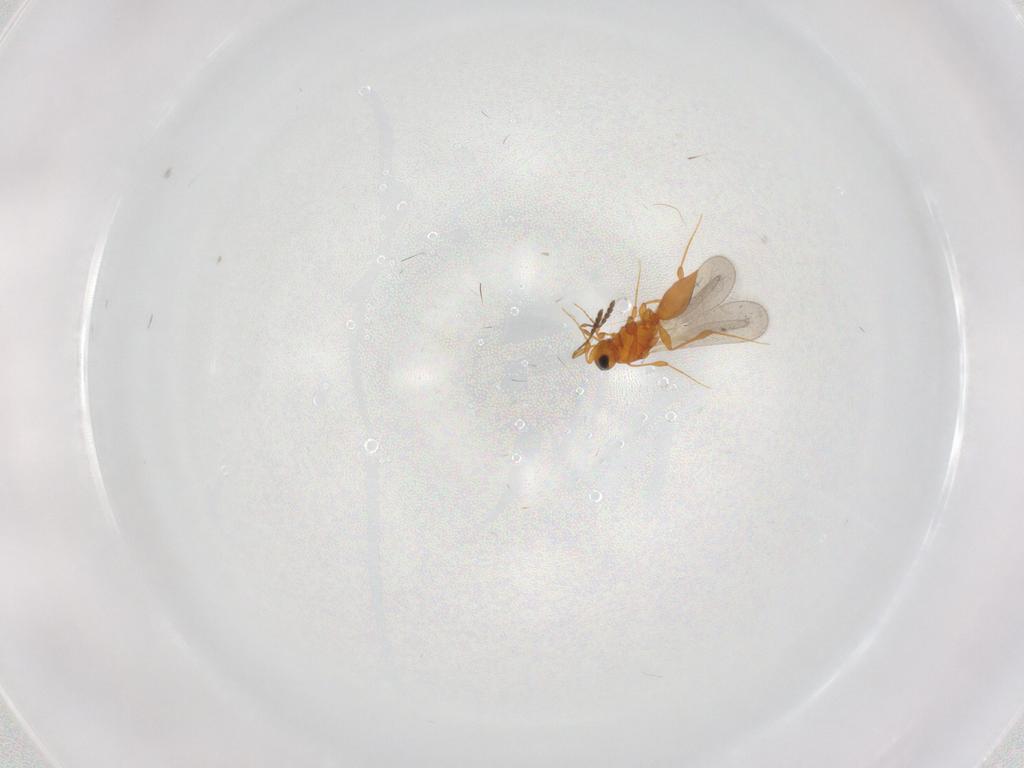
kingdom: Animalia
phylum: Arthropoda
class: Insecta
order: Hymenoptera
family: Platygastridae
